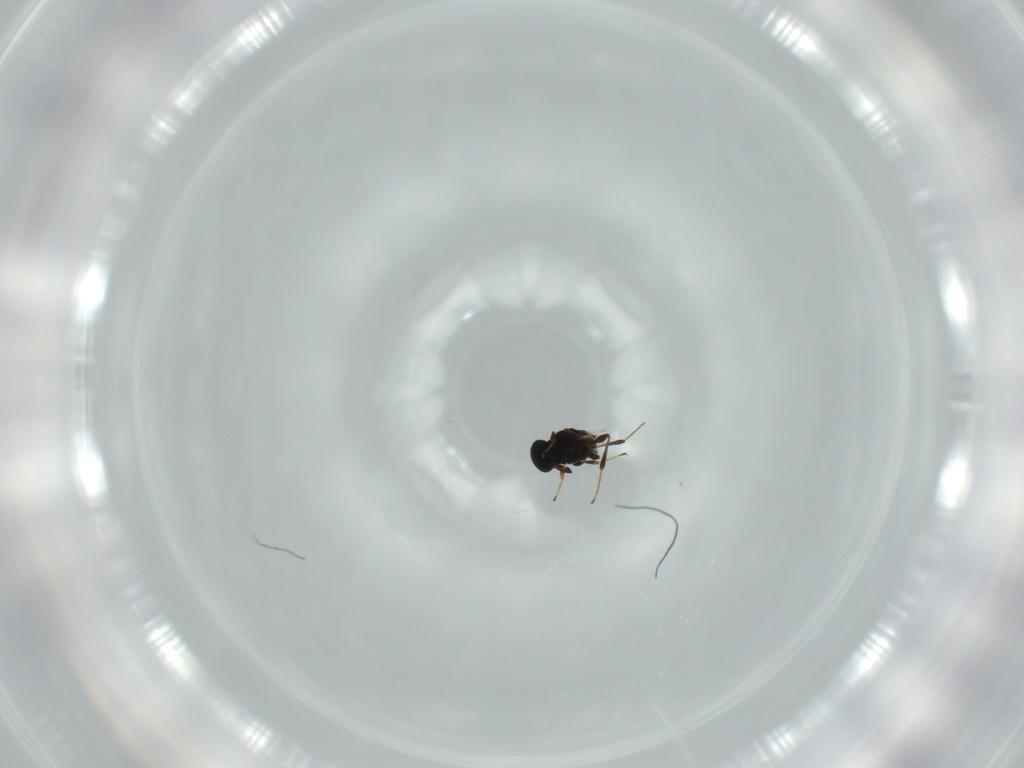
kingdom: Animalia
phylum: Arthropoda
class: Insecta
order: Hymenoptera
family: Platygastridae
